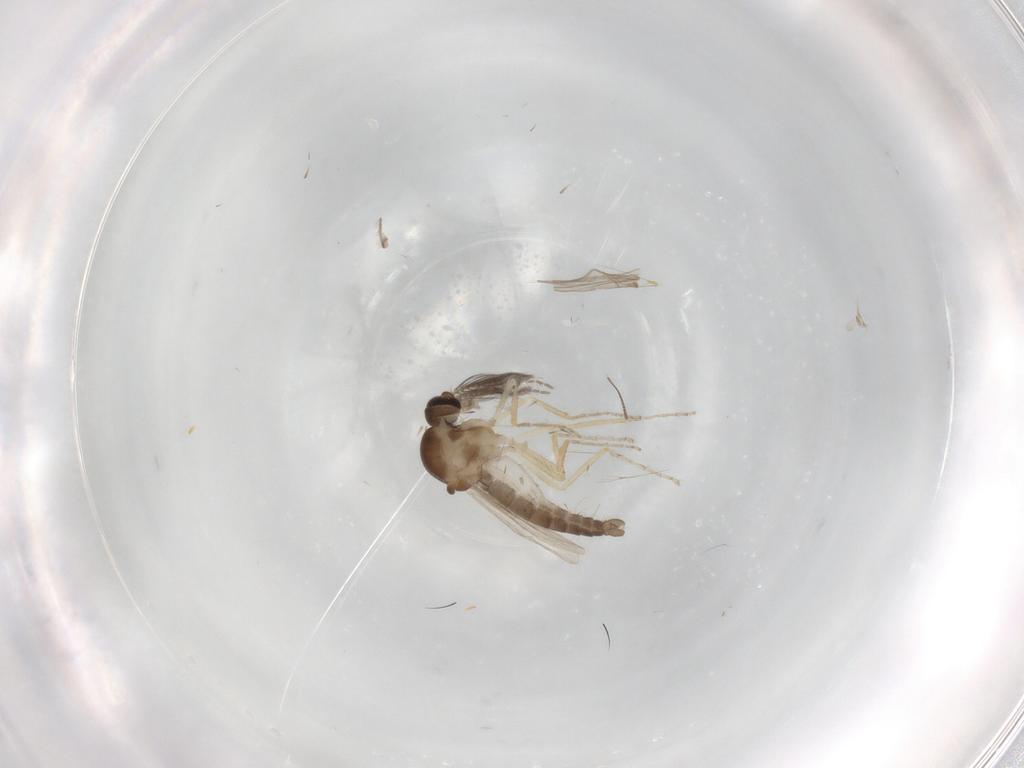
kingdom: Animalia
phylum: Arthropoda
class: Insecta
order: Diptera
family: Ceratopogonidae
